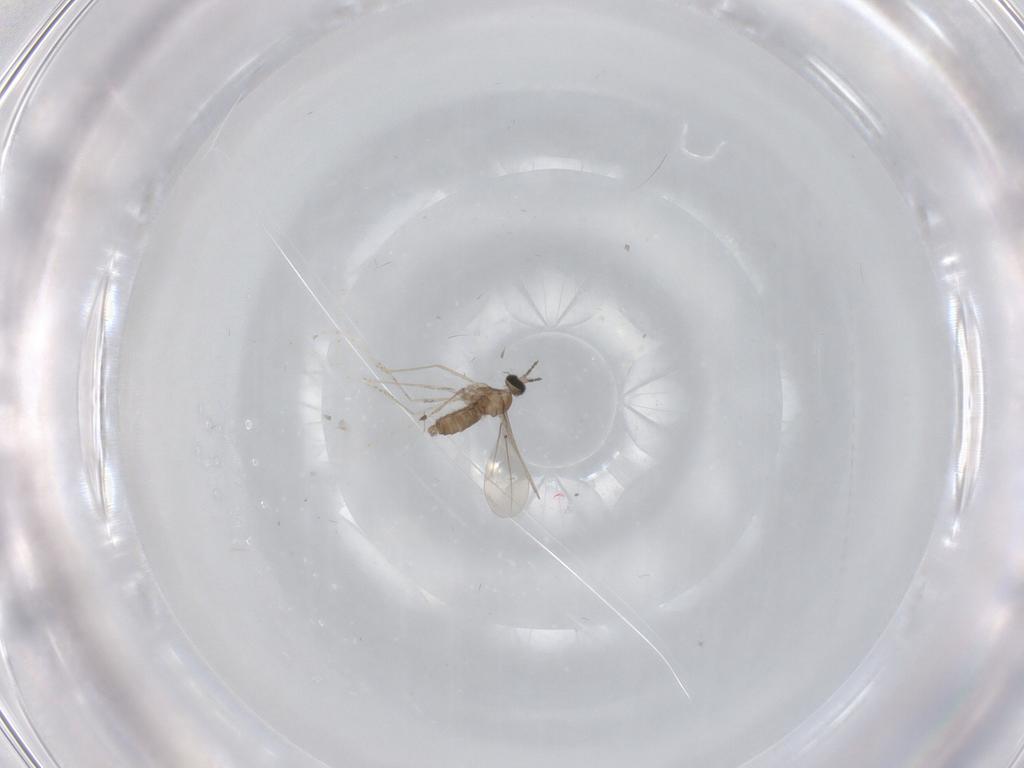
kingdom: Animalia
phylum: Arthropoda
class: Insecta
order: Diptera
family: Cecidomyiidae
